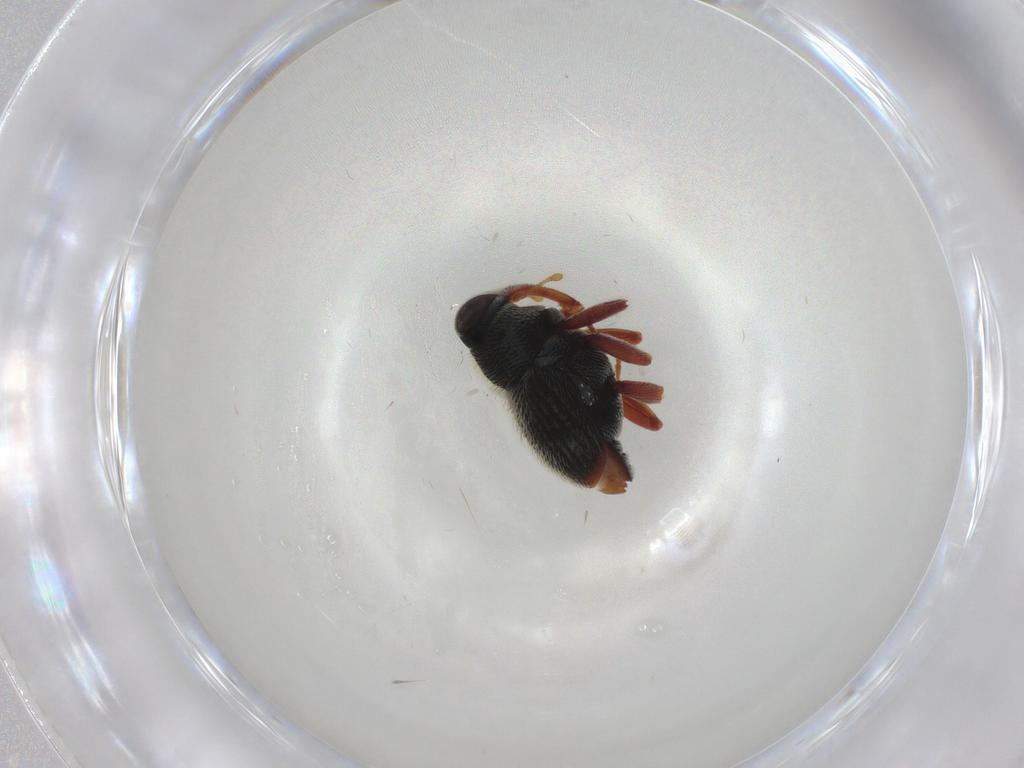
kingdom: Animalia
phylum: Arthropoda
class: Insecta
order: Coleoptera
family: Curculionidae
